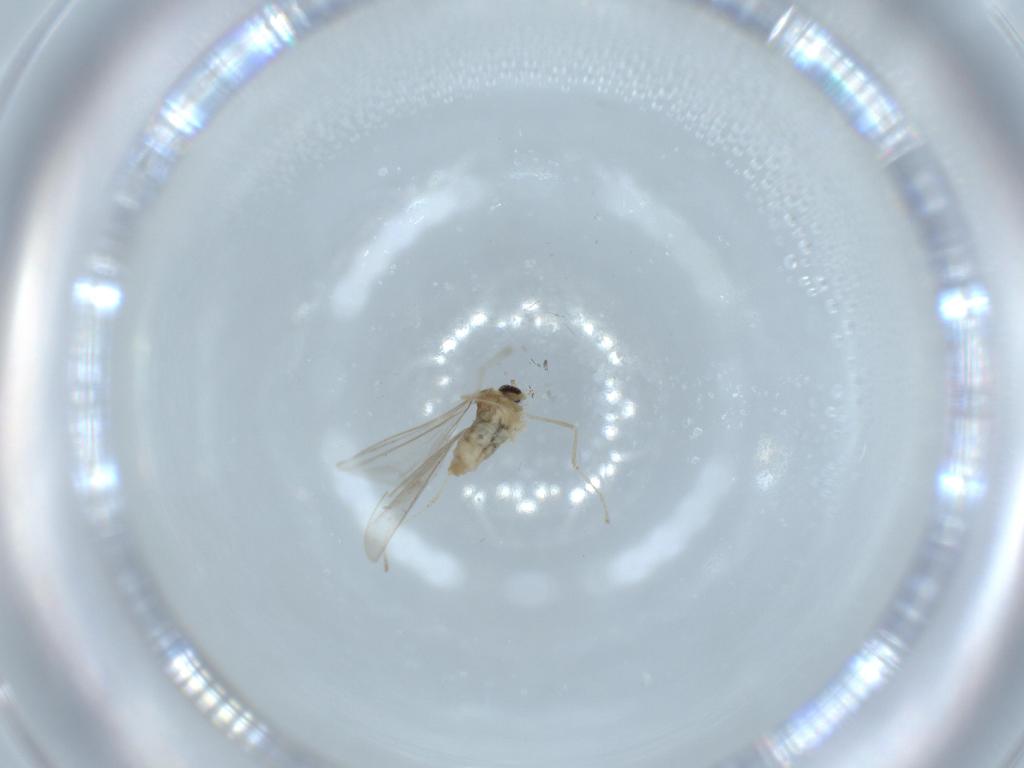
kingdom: Animalia
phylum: Arthropoda
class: Insecta
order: Diptera
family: Cecidomyiidae
